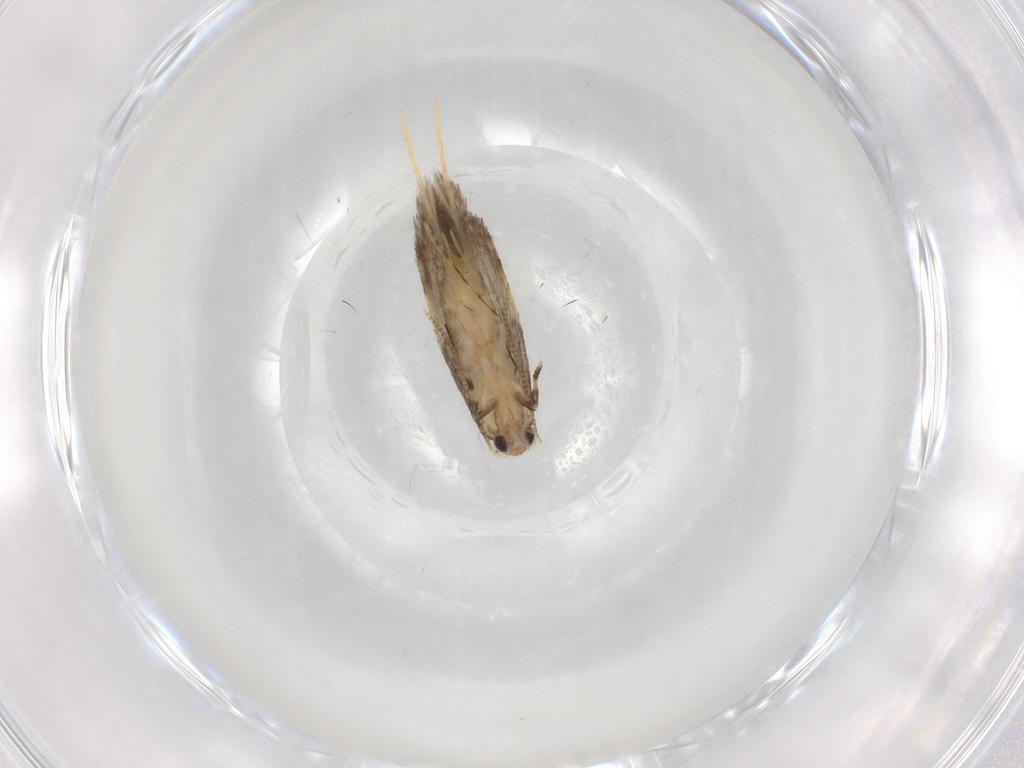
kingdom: Animalia
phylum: Arthropoda
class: Insecta
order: Lepidoptera
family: Tineidae
